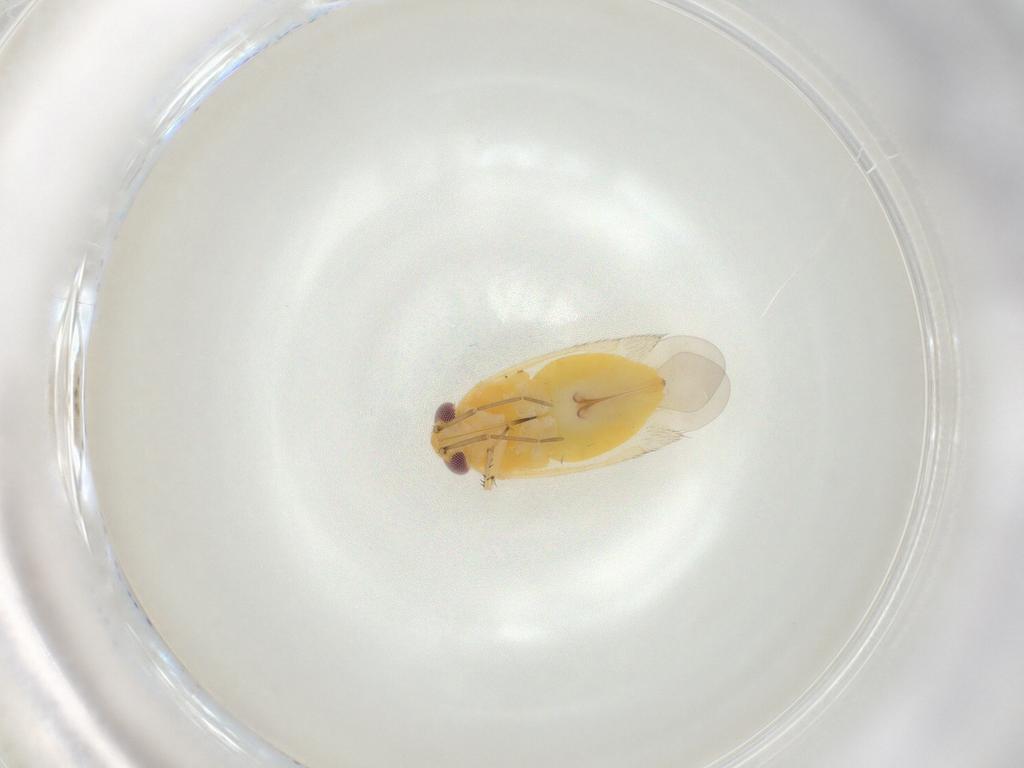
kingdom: Animalia
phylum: Arthropoda
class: Insecta
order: Hemiptera
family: Miridae
